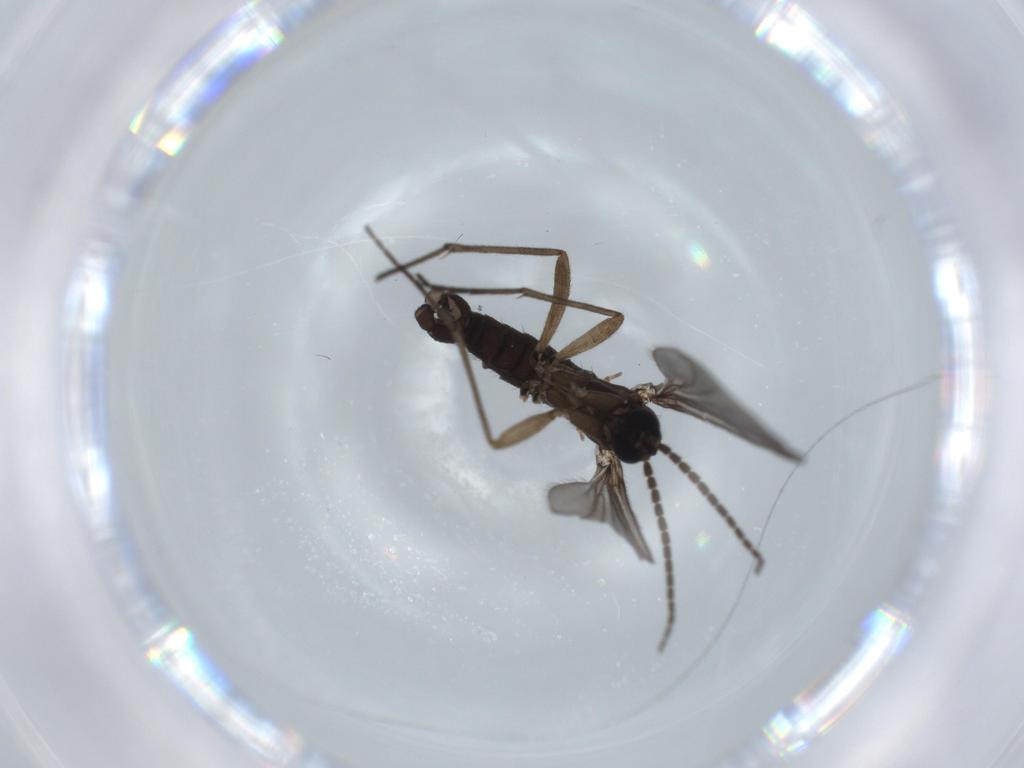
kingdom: Animalia
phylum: Arthropoda
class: Insecta
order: Diptera
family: Sciaridae
